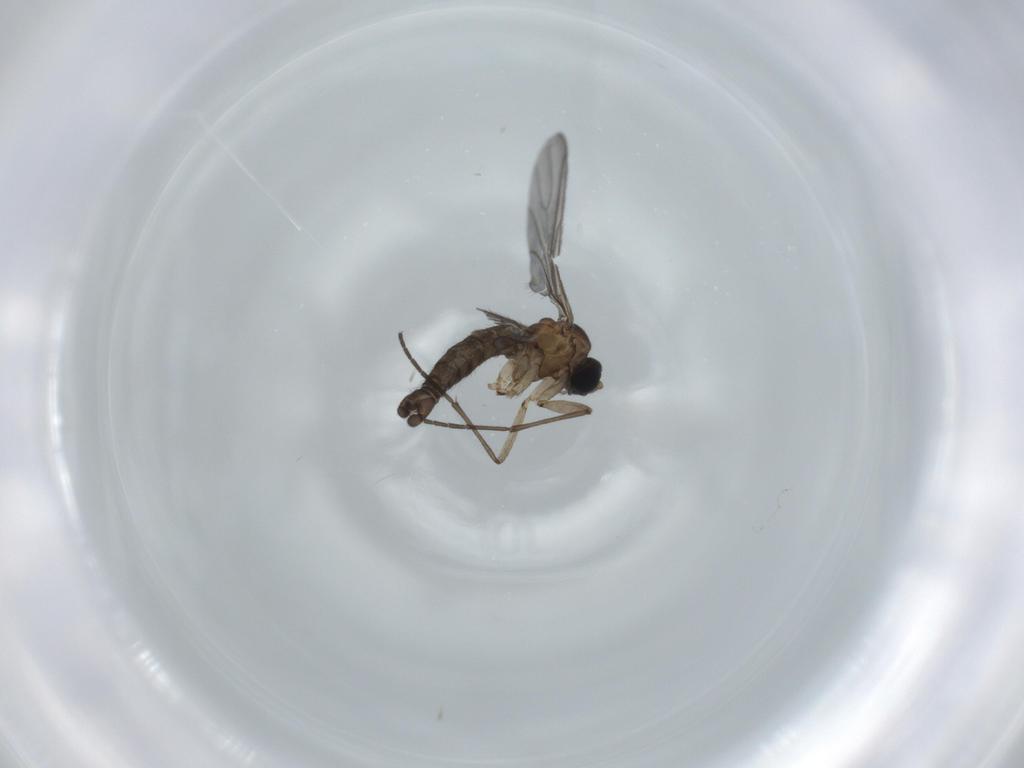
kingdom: Animalia
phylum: Arthropoda
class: Insecta
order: Diptera
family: Sciaridae
